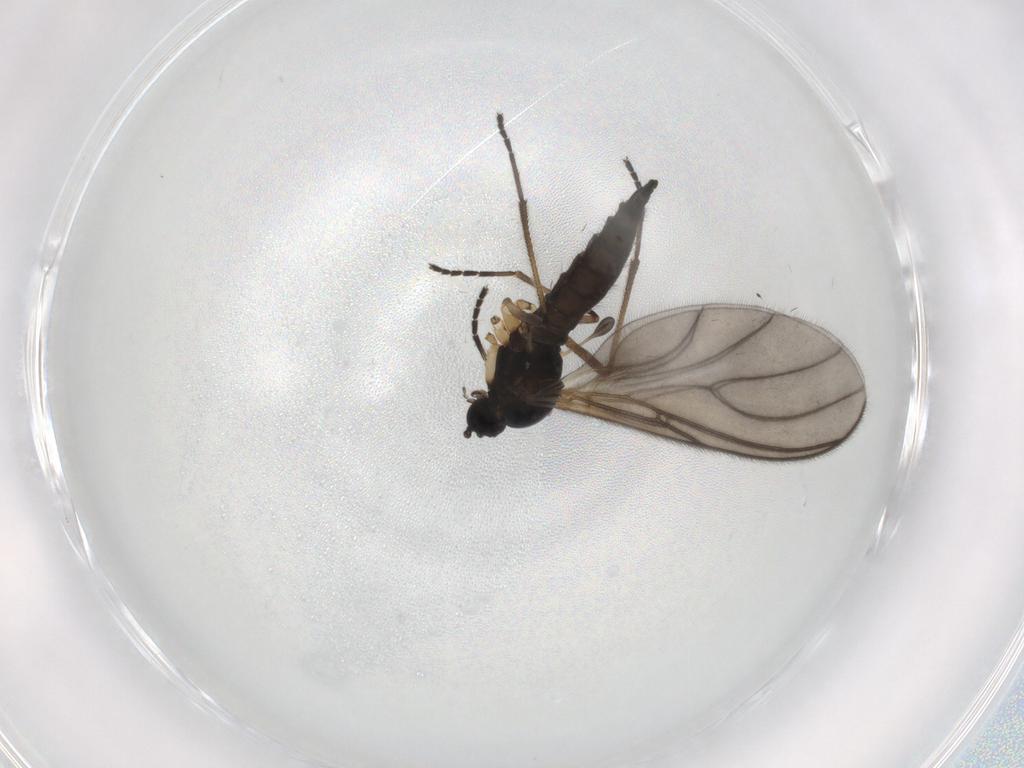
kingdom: Animalia
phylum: Arthropoda
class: Insecta
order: Diptera
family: Sciaridae
